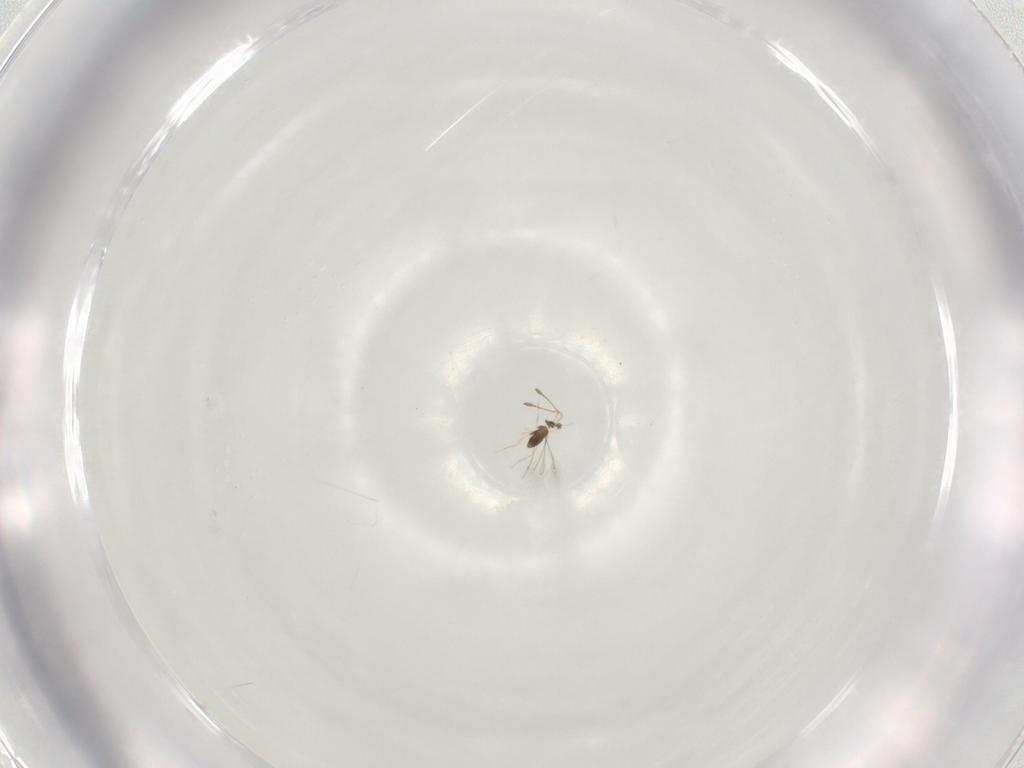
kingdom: Animalia
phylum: Arthropoda
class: Insecta
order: Hymenoptera
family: Scelionidae
